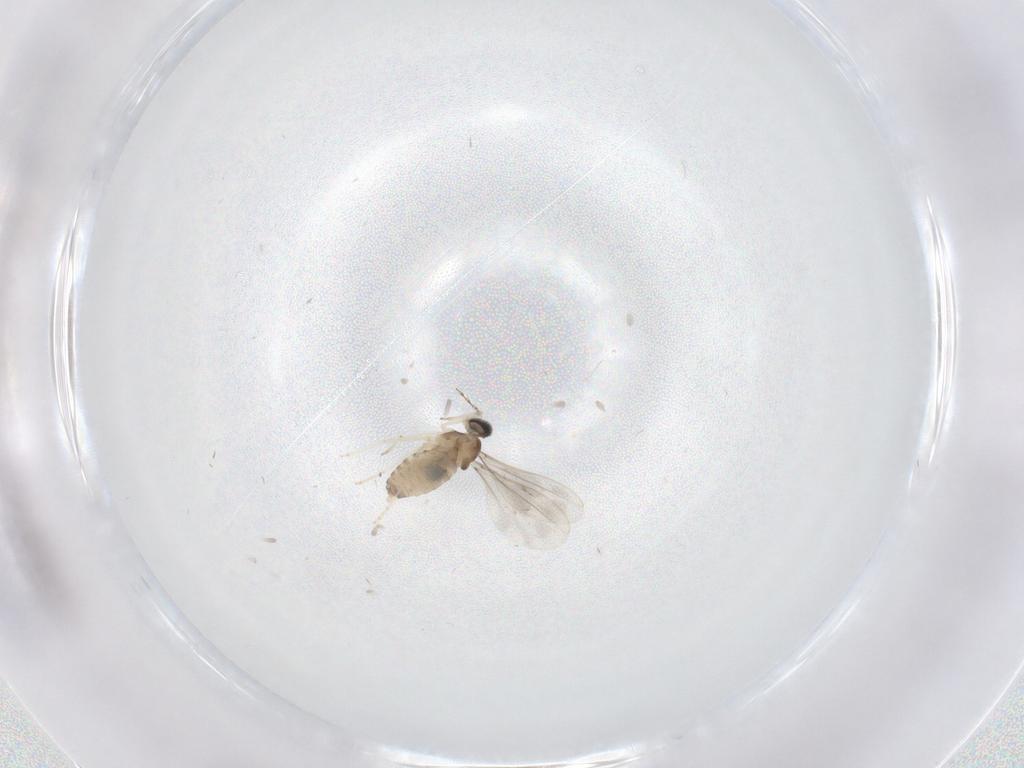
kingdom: Animalia
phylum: Arthropoda
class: Insecta
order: Diptera
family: Cecidomyiidae
